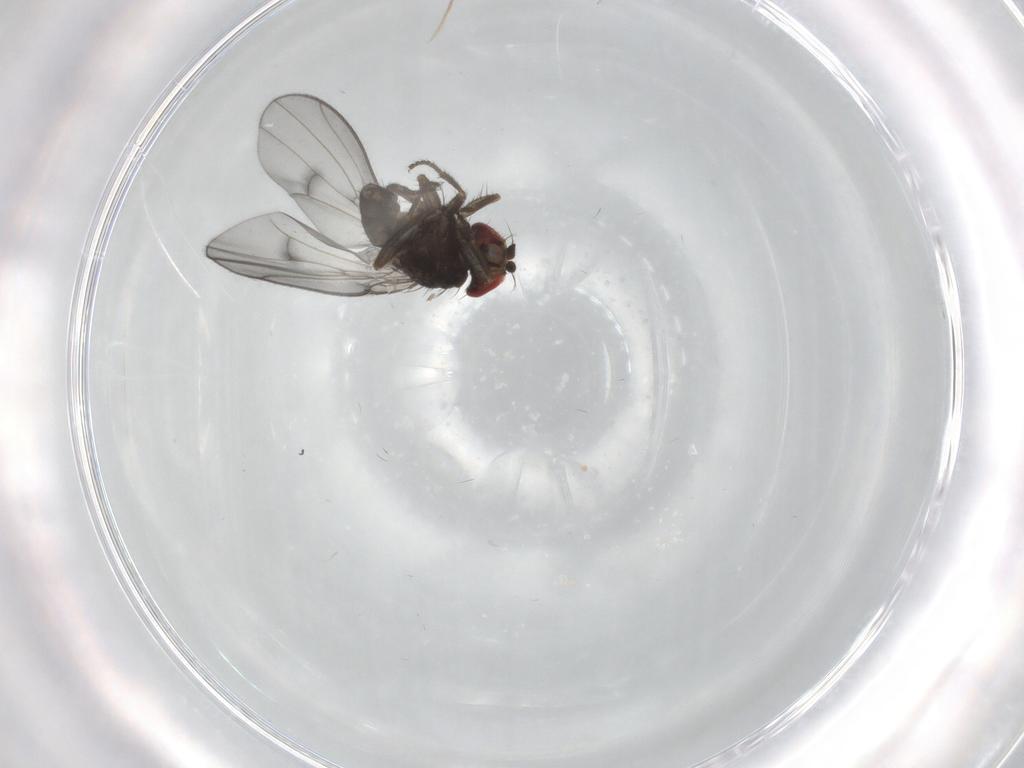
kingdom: Animalia
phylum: Arthropoda
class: Insecta
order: Diptera
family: Drosophilidae
